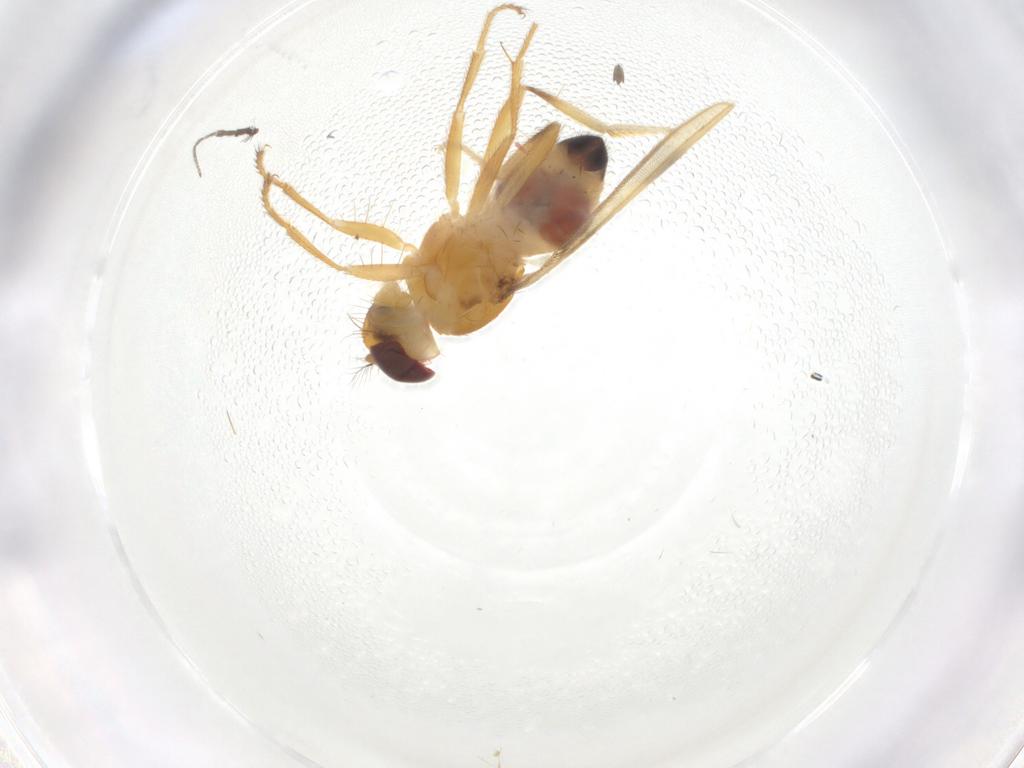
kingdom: Animalia
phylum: Arthropoda
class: Insecta
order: Diptera
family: Periscelididae
